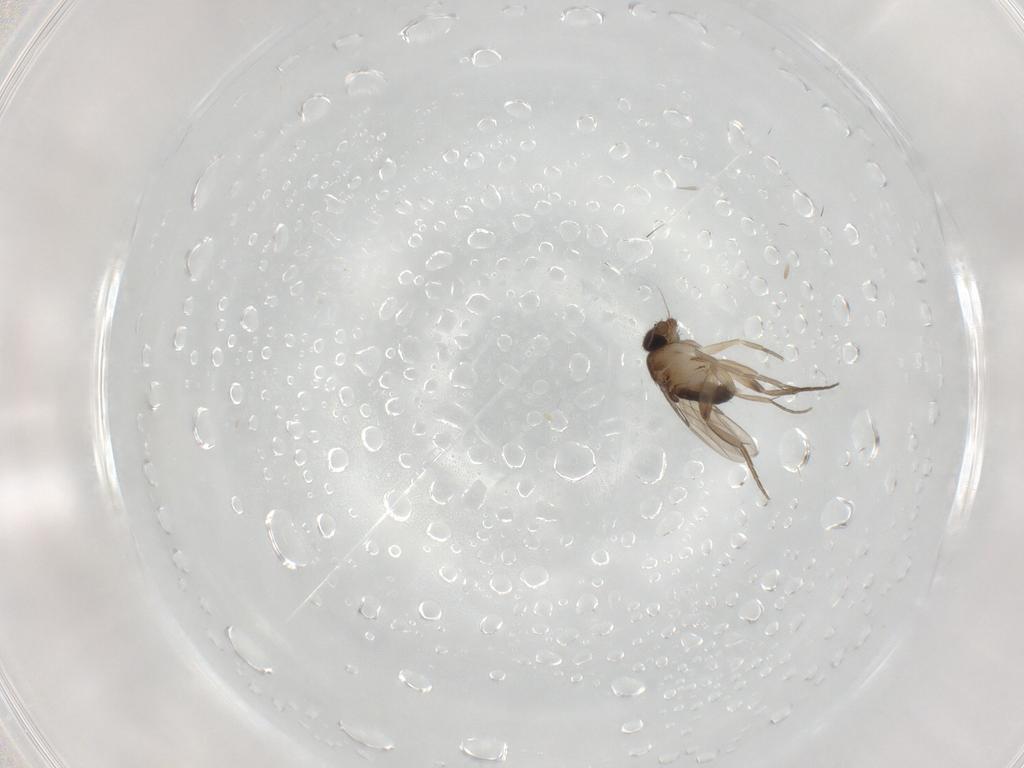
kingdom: Animalia
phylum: Arthropoda
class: Insecta
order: Diptera
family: Phoridae
